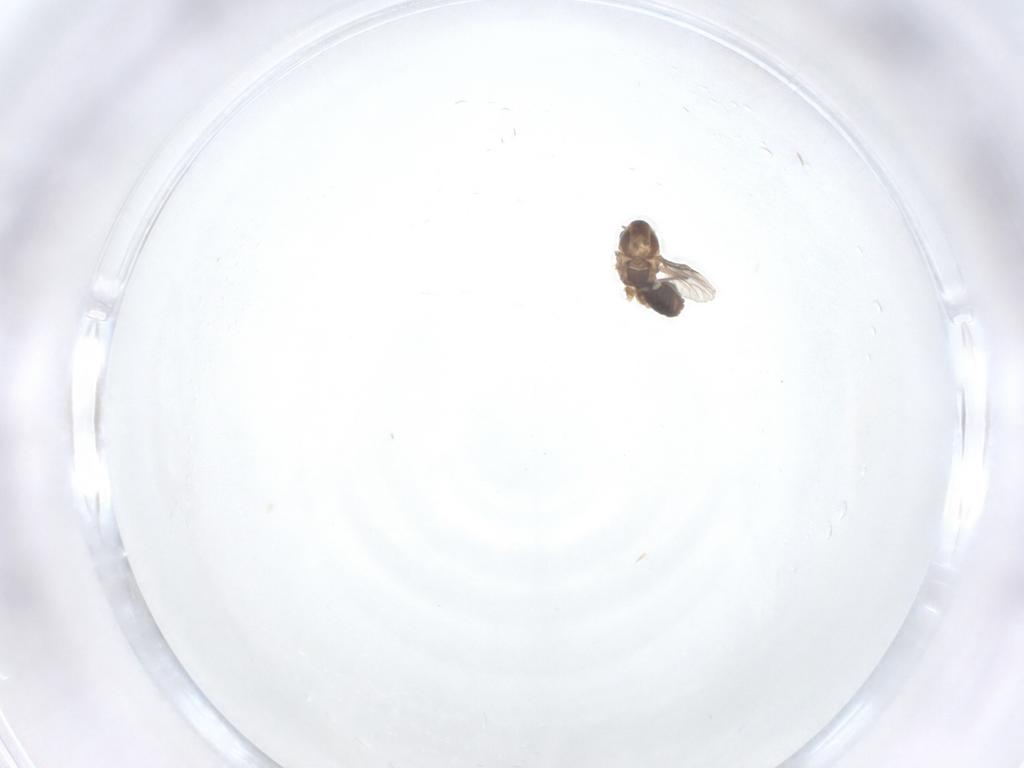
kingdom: Animalia
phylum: Arthropoda
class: Insecta
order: Diptera
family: Chironomidae
